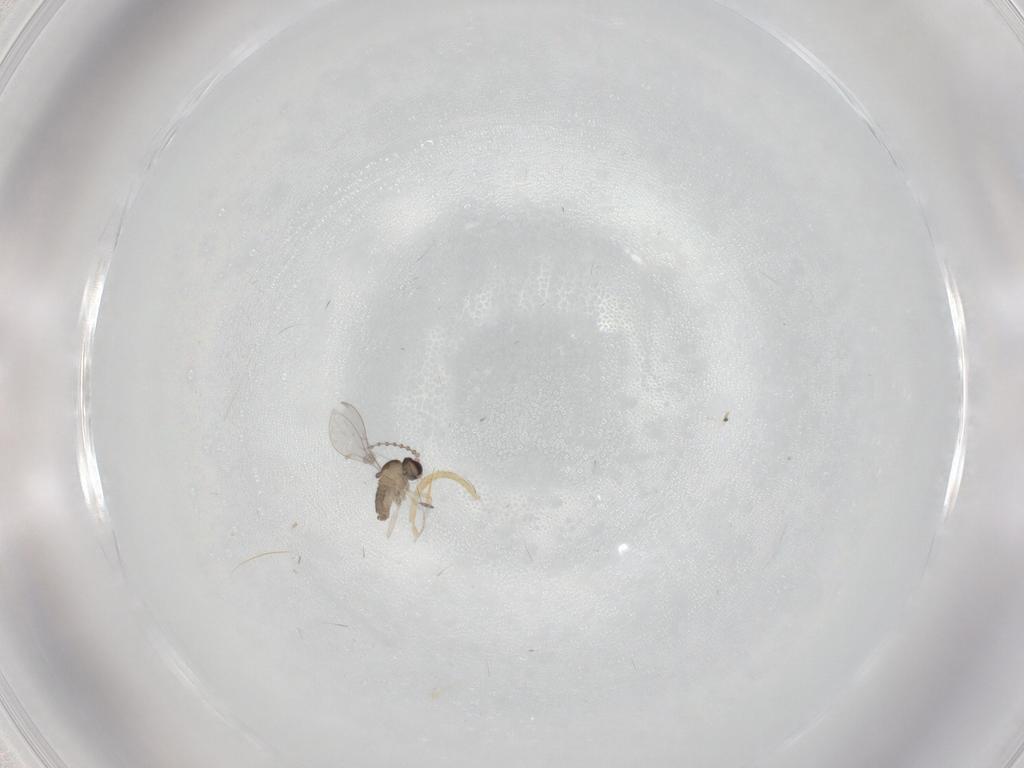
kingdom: Animalia
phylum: Arthropoda
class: Insecta
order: Diptera
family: Cecidomyiidae
